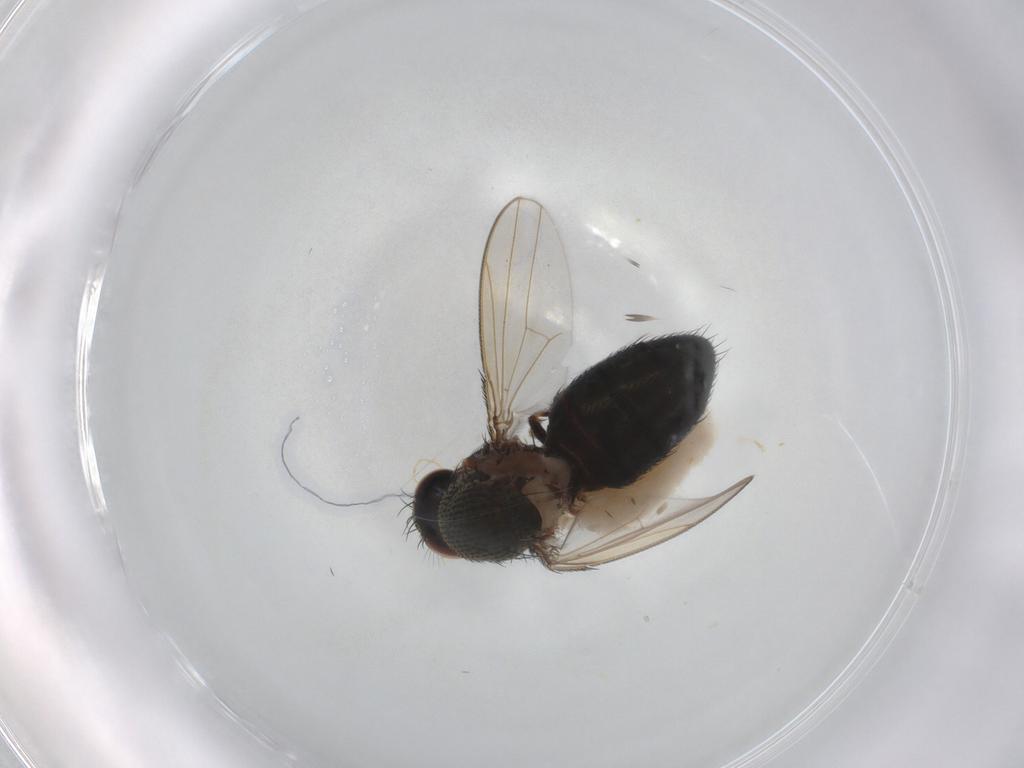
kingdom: Animalia
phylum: Arthropoda
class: Insecta
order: Diptera
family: Ephydridae
